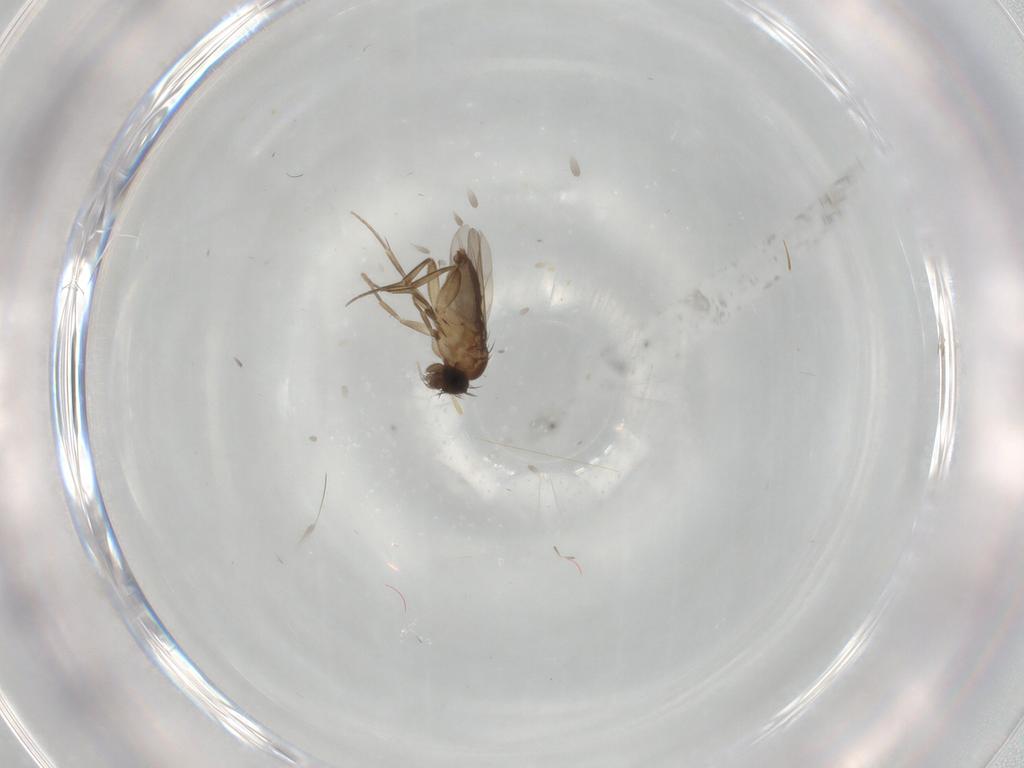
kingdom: Animalia
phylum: Arthropoda
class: Insecta
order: Diptera
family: Phoridae
